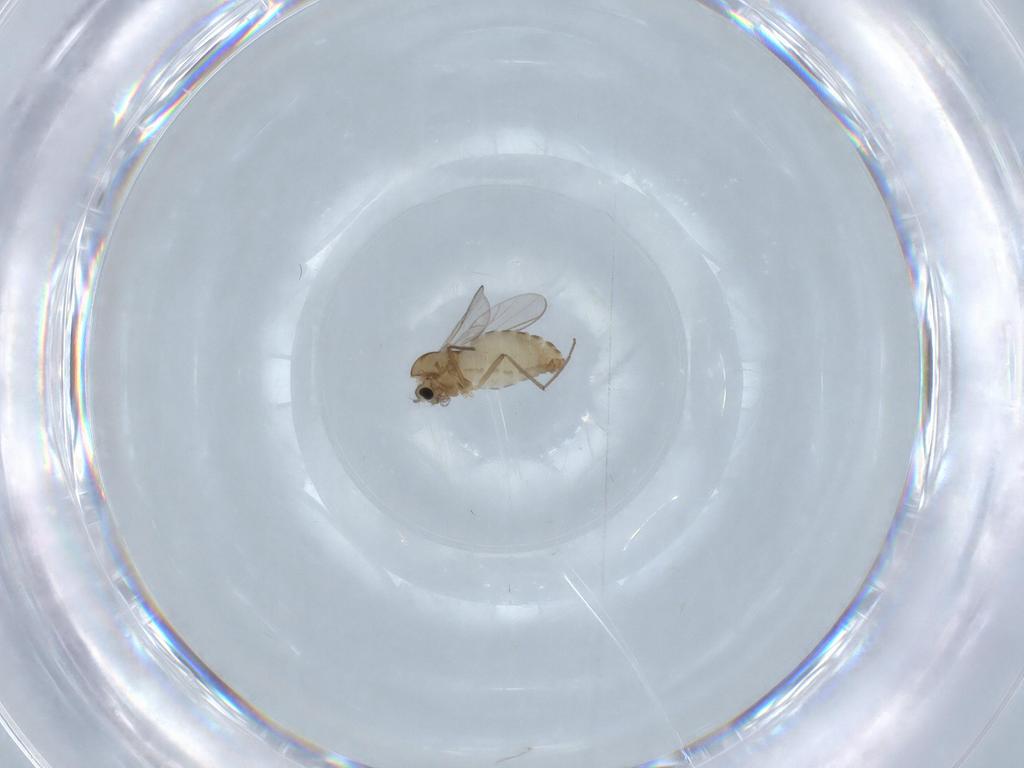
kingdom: Animalia
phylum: Arthropoda
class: Insecta
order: Diptera
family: Chironomidae
